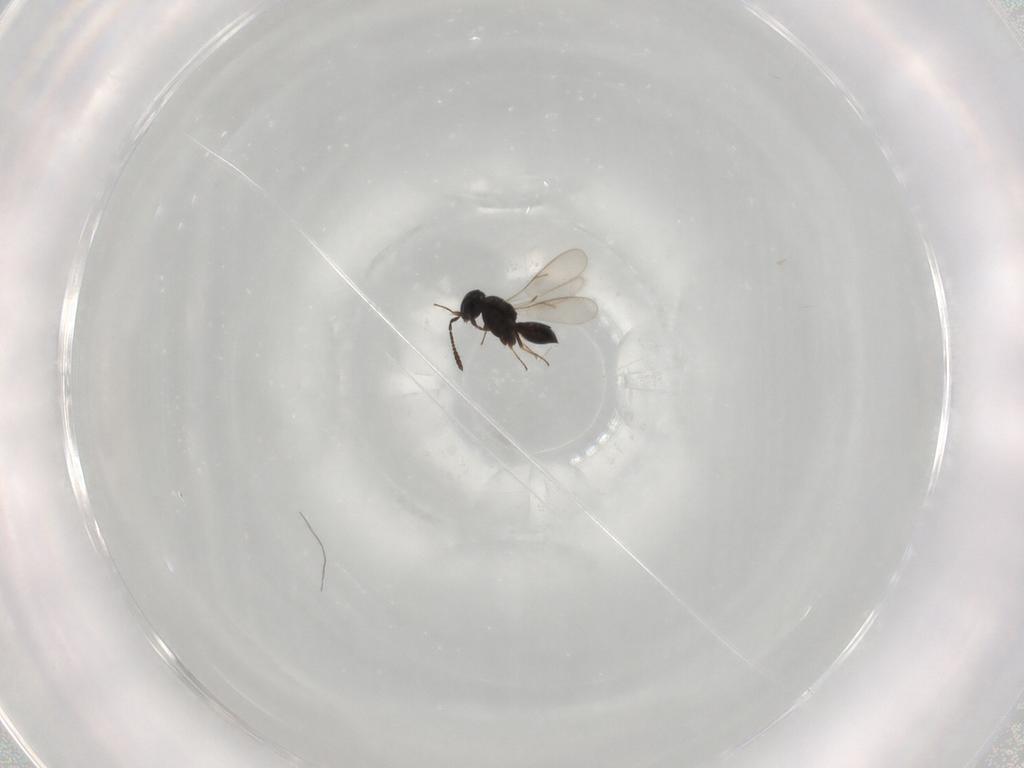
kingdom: Animalia
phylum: Arthropoda
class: Insecta
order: Hymenoptera
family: Scelionidae
